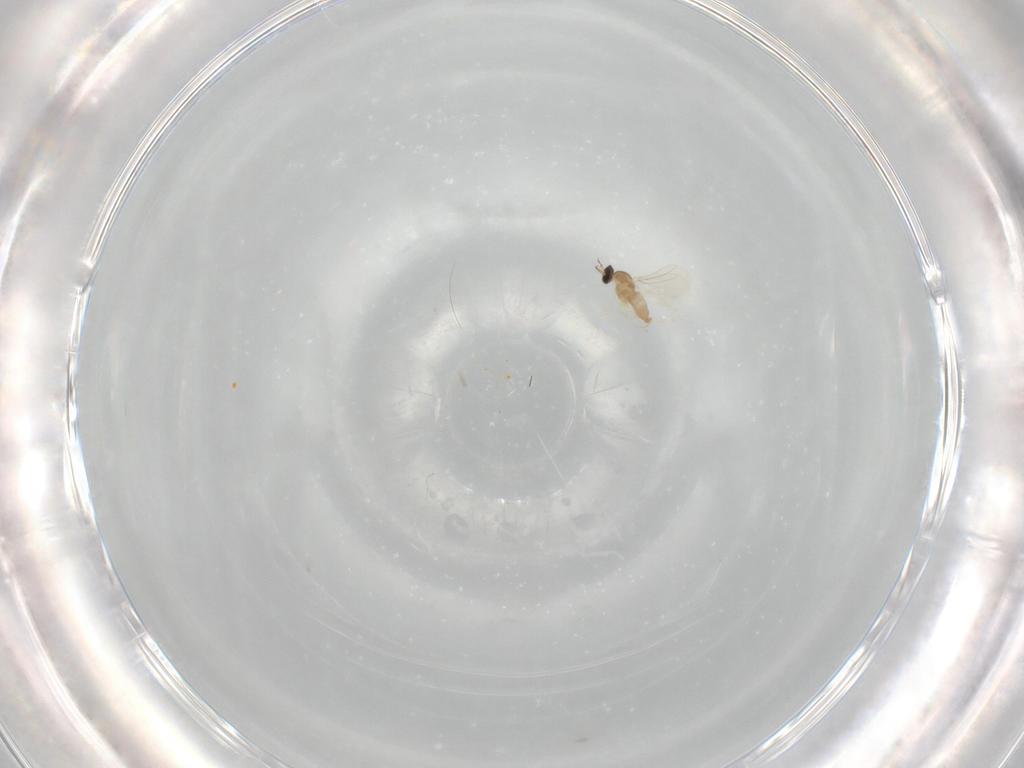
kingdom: Animalia
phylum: Arthropoda
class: Insecta
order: Diptera
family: Cecidomyiidae
